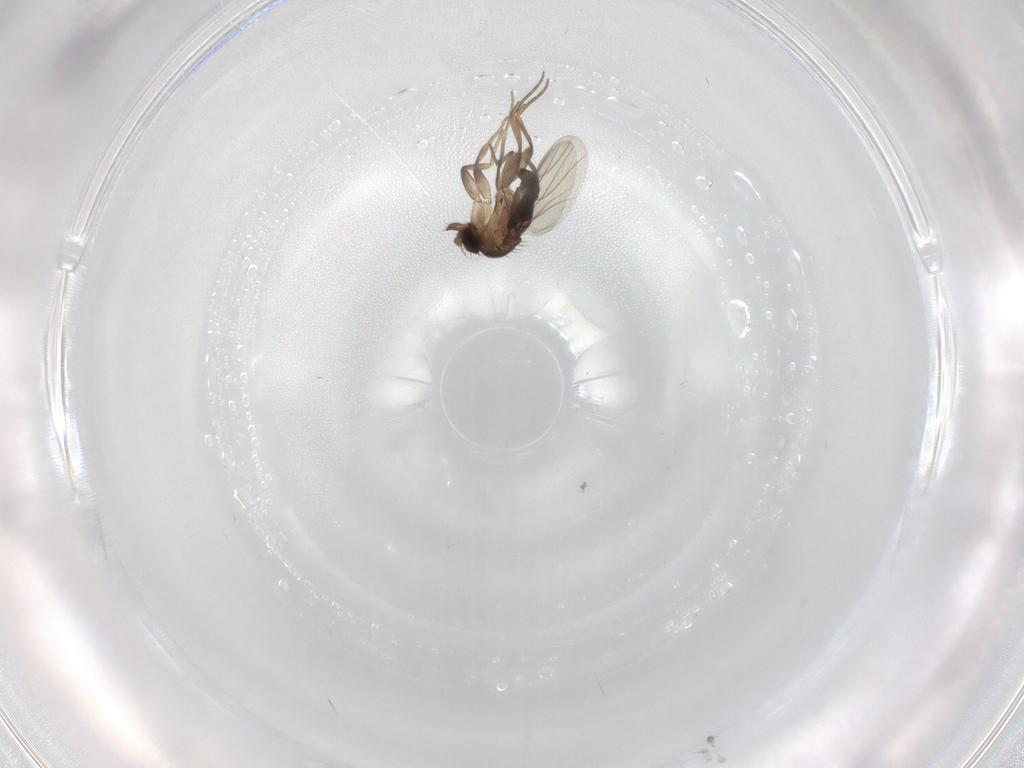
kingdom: Animalia
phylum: Arthropoda
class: Insecta
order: Diptera
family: Phoridae
